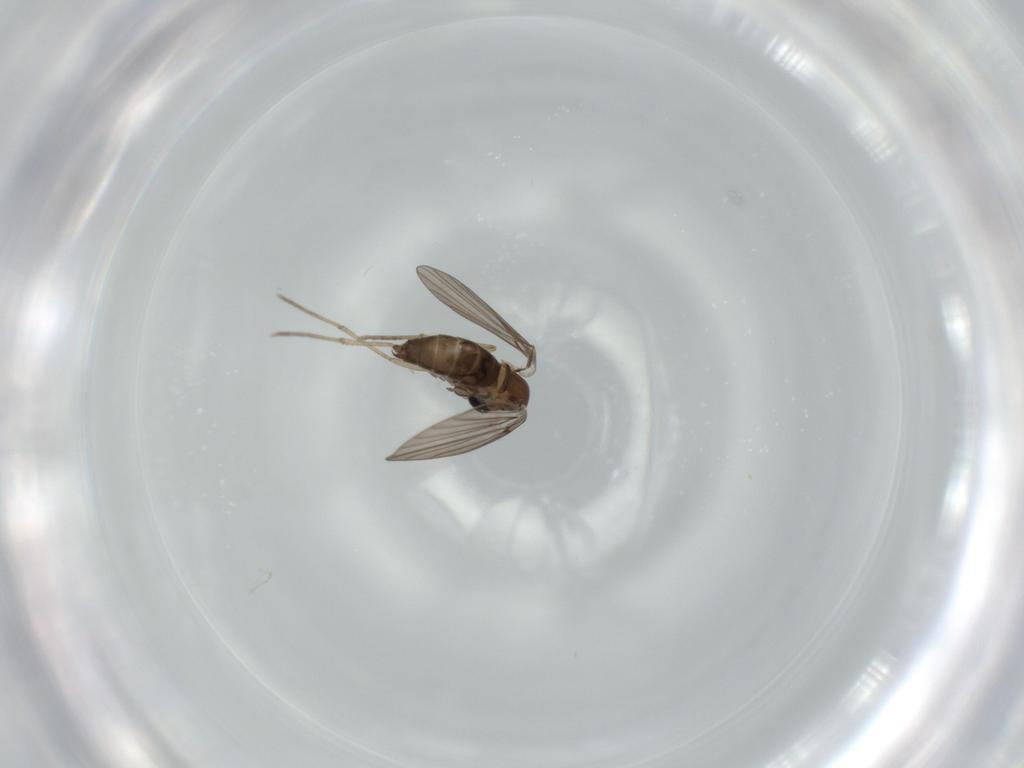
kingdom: Animalia
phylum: Arthropoda
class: Insecta
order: Diptera
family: Psychodidae
